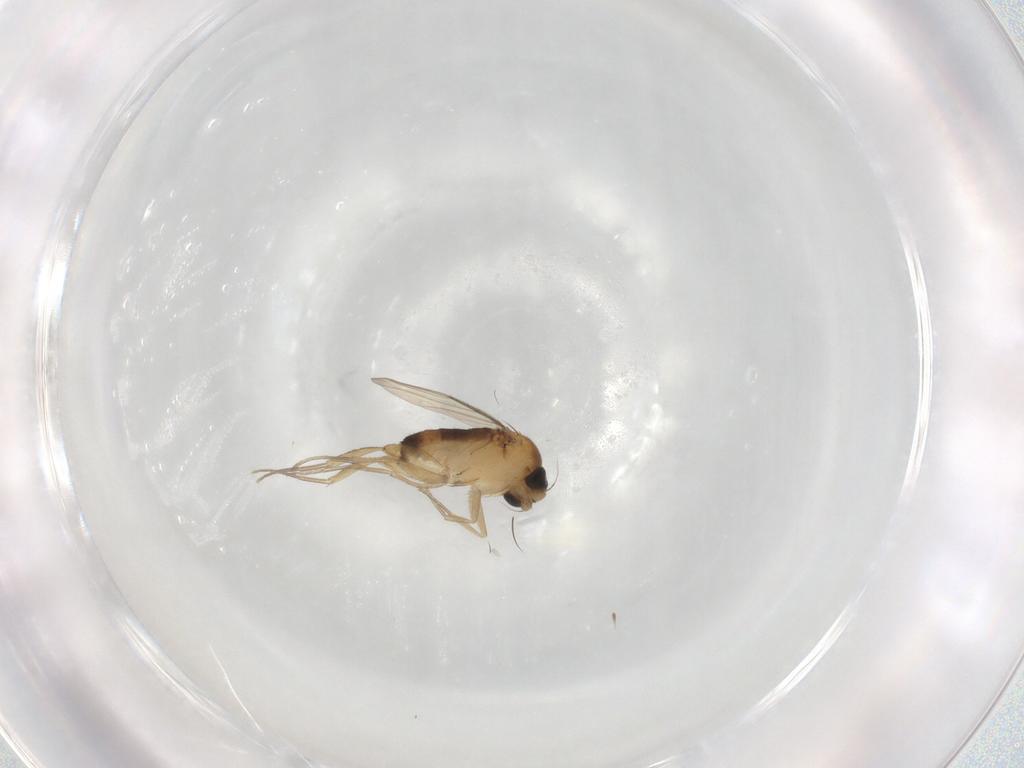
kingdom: Animalia
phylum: Arthropoda
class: Insecta
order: Diptera
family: Phoridae
